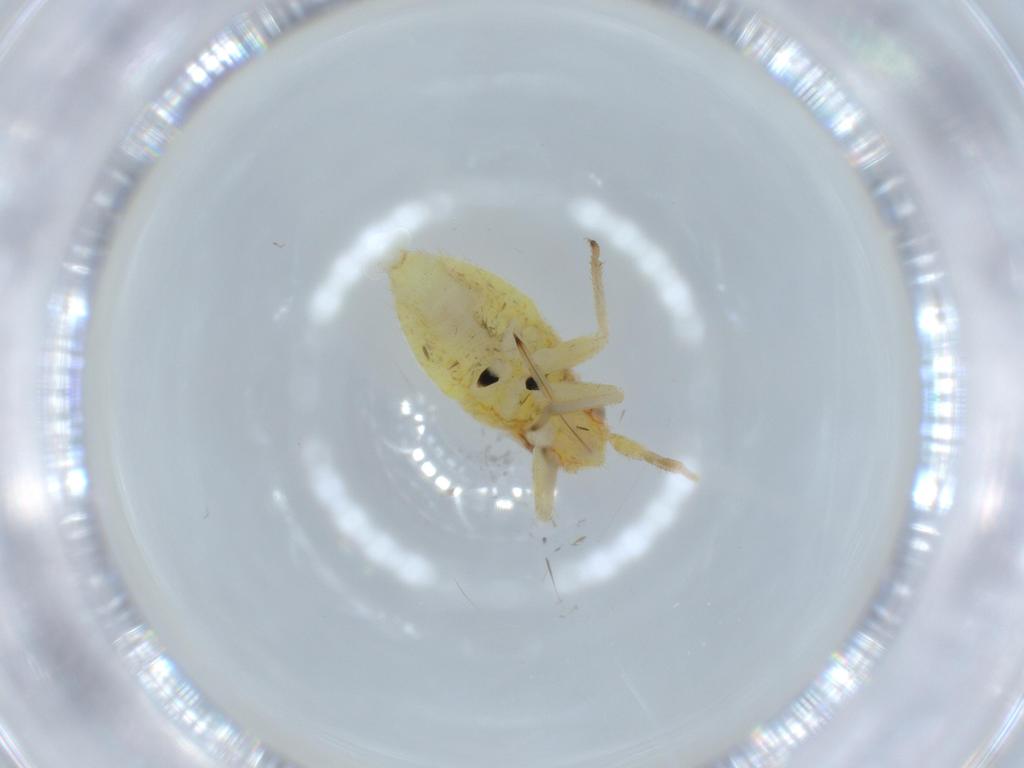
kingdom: Animalia
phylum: Arthropoda
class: Insecta
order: Hemiptera
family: Miridae
